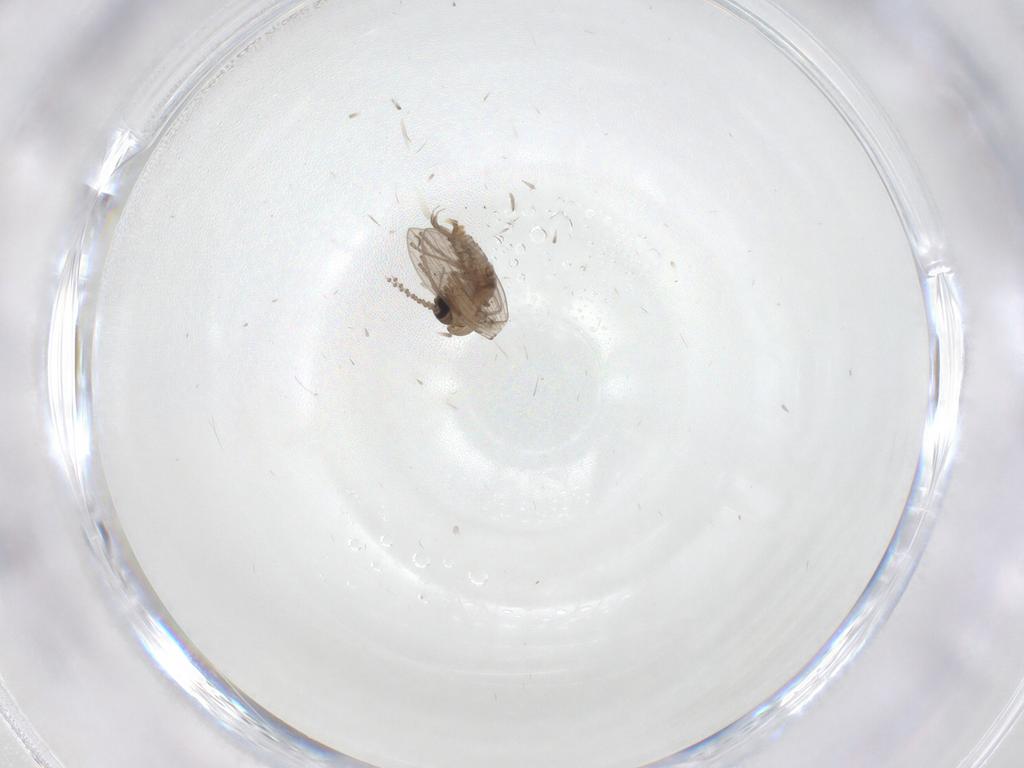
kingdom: Animalia
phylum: Arthropoda
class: Insecta
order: Diptera
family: Psychodidae
